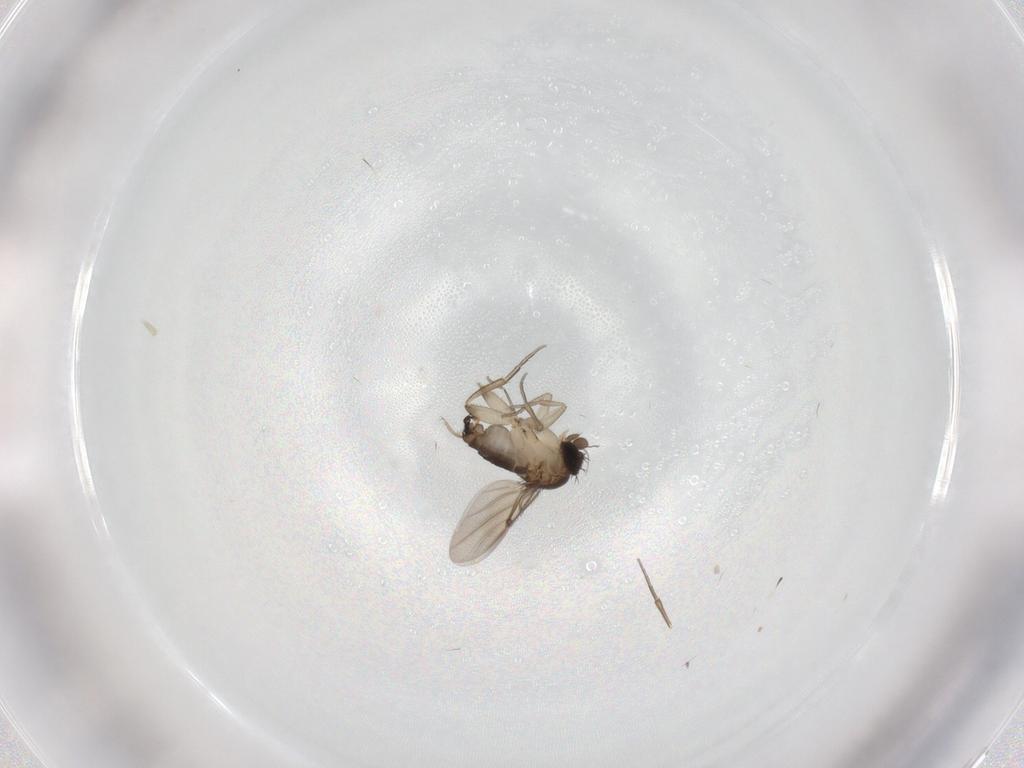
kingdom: Animalia
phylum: Arthropoda
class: Insecta
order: Diptera
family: Phoridae
